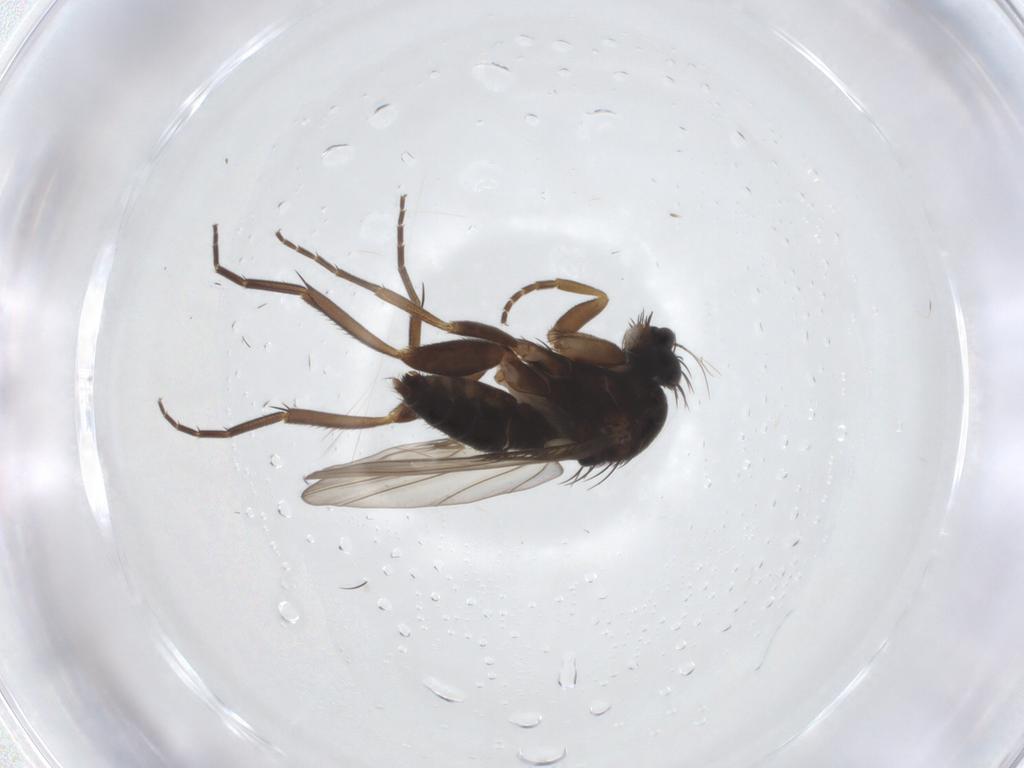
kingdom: Animalia
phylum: Arthropoda
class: Insecta
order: Diptera
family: Phoridae
